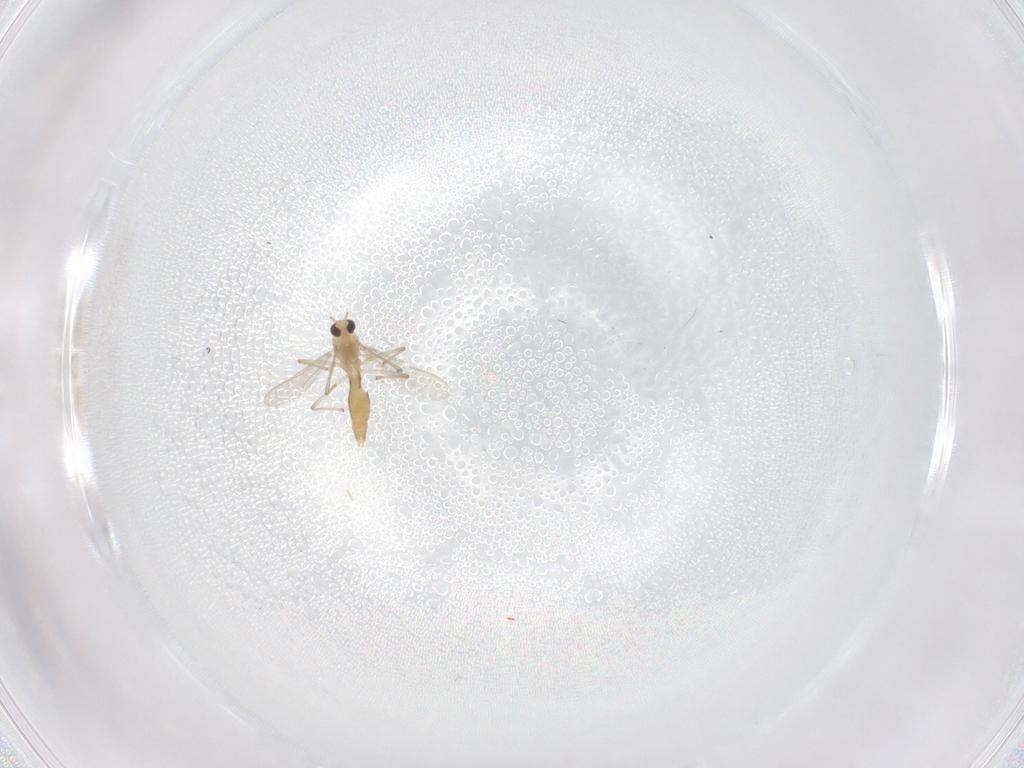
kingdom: Animalia
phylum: Arthropoda
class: Insecta
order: Diptera
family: Chironomidae
